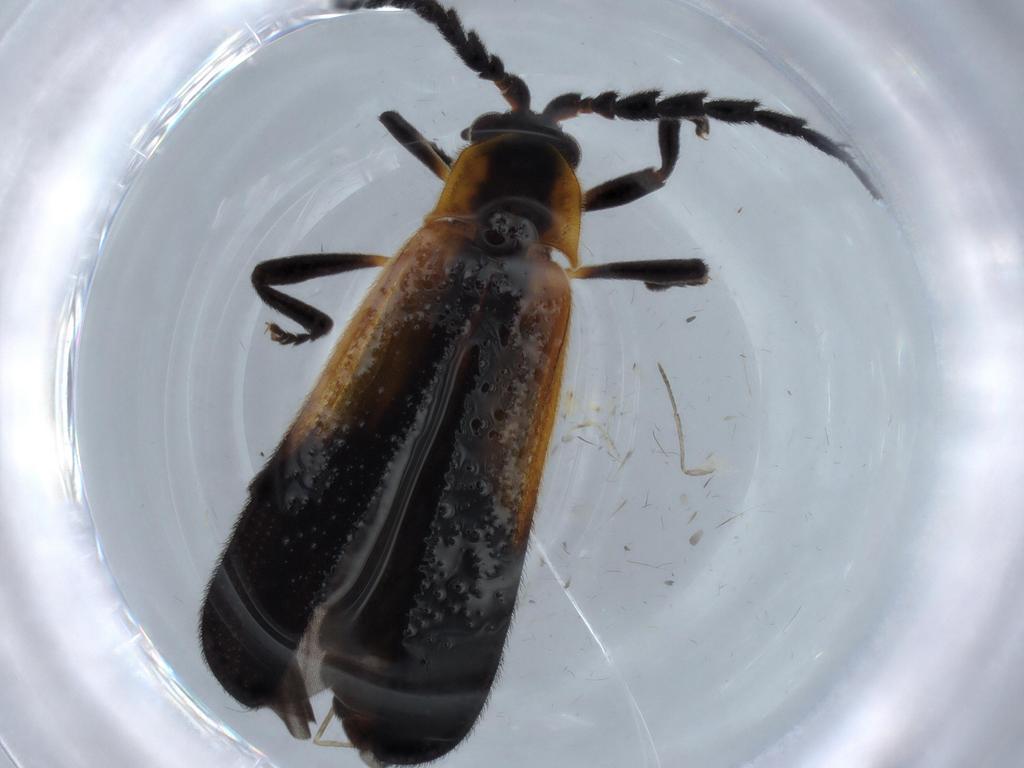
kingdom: Animalia
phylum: Arthropoda
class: Insecta
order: Coleoptera
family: Lycidae
